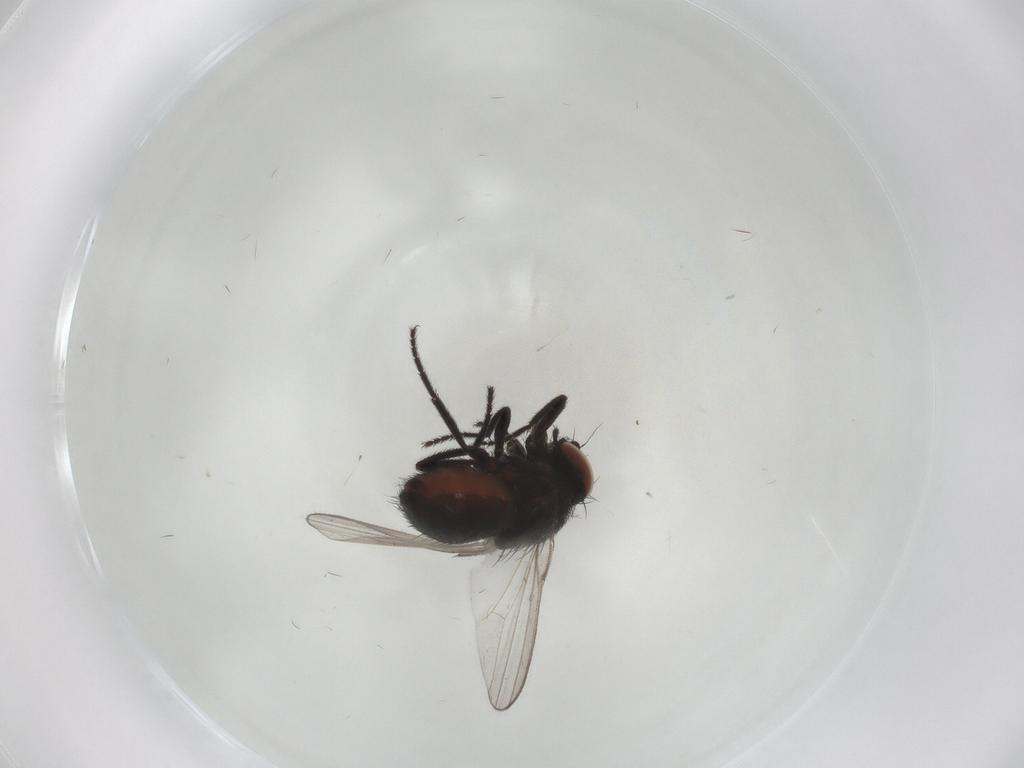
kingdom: Animalia
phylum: Arthropoda
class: Insecta
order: Diptera
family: Milichiidae
